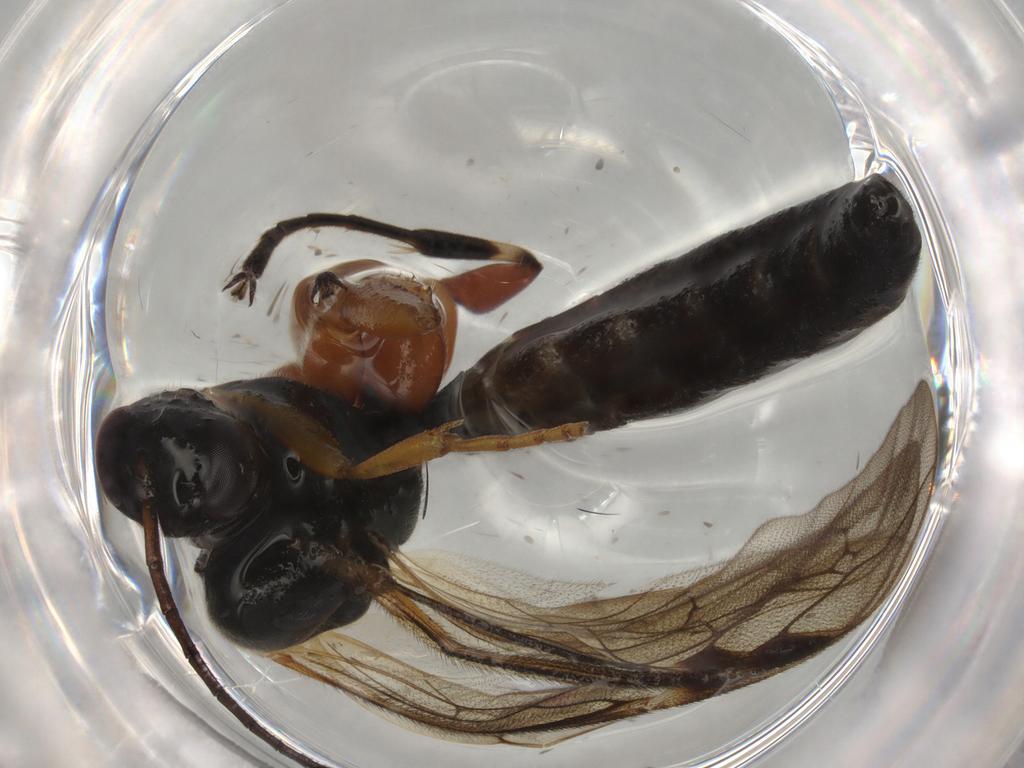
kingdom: Animalia
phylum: Arthropoda
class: Insecta
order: Hymenoptera
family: Ichneumonidae
